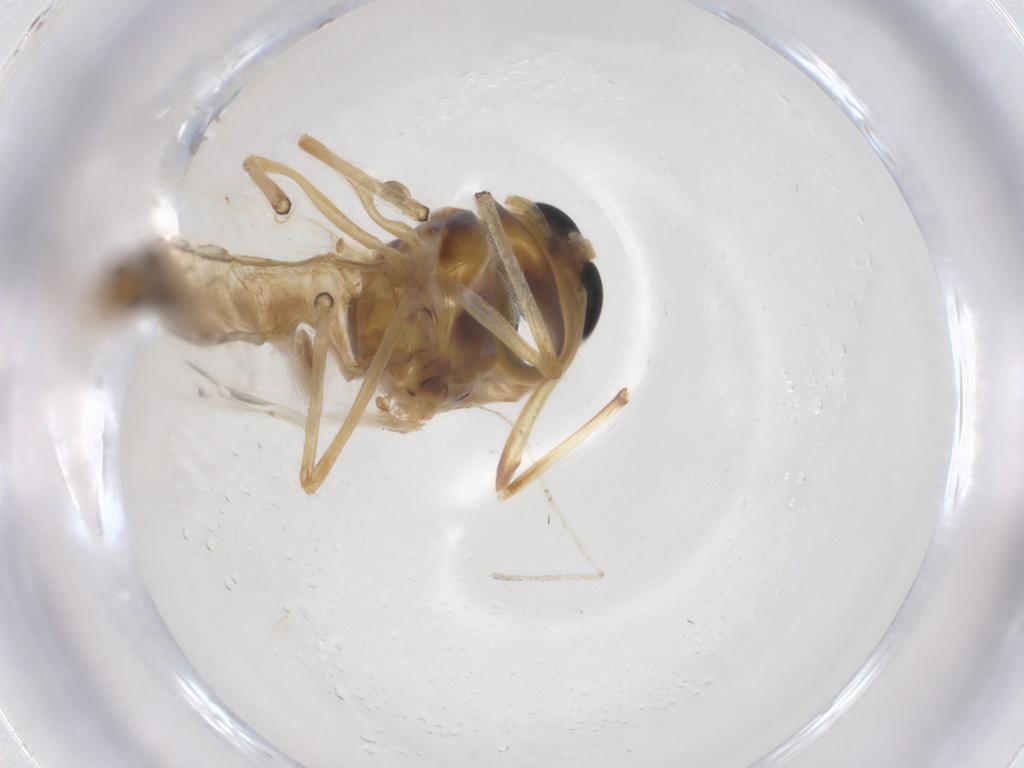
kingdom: Animalia
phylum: Arthropoda
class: Insecta
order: Diptera
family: Chironomidae
